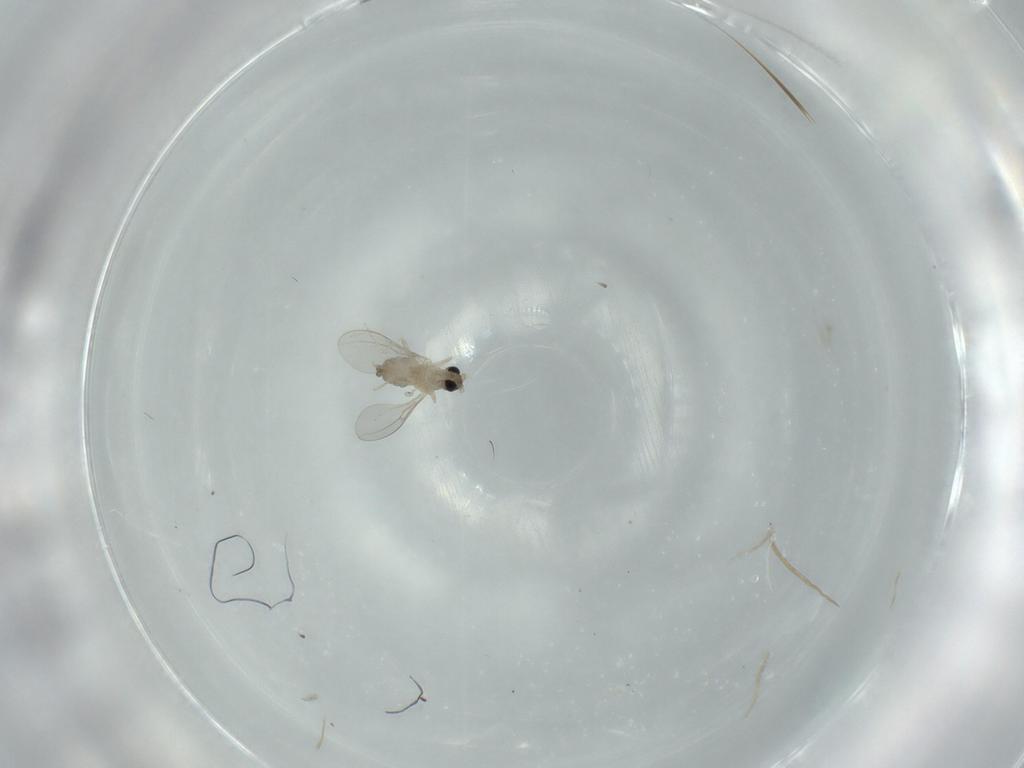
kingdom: Animalia
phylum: Arthropoda
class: Insecta
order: Diptera
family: Cecidomyiidae
